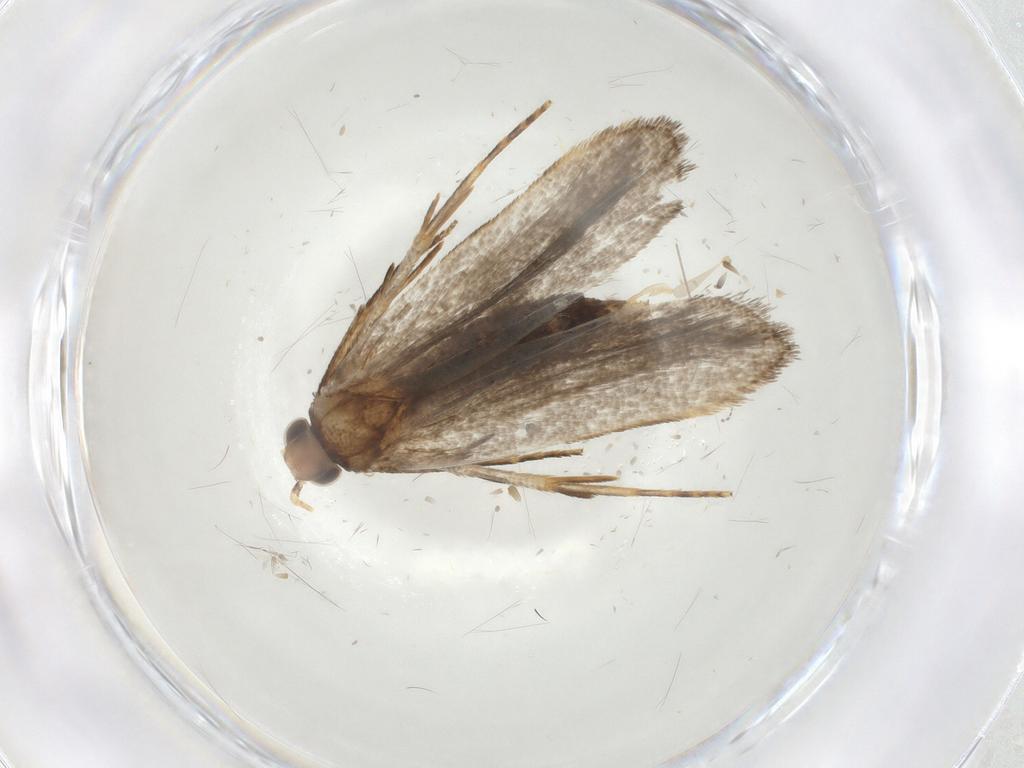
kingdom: Animalia
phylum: Arthropoda
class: Insecta
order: Lepidoptera
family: Gelechiidae
